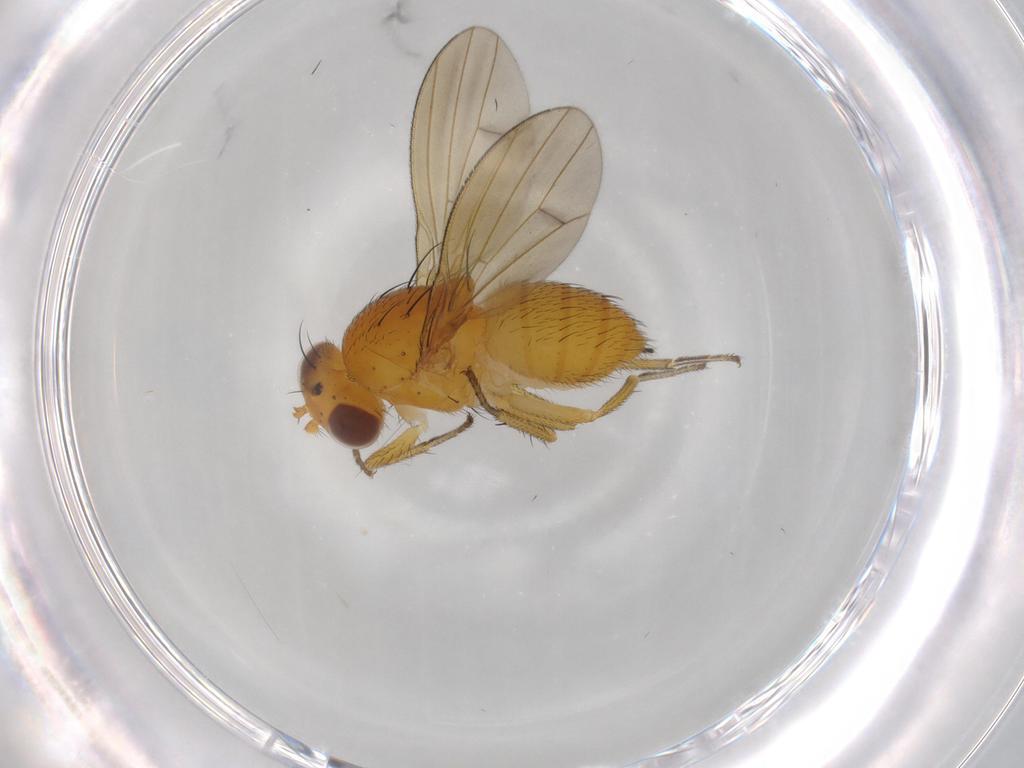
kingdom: Animalia
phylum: Arthropoda
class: Insecta
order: Diptera
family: Lauxaniidae
